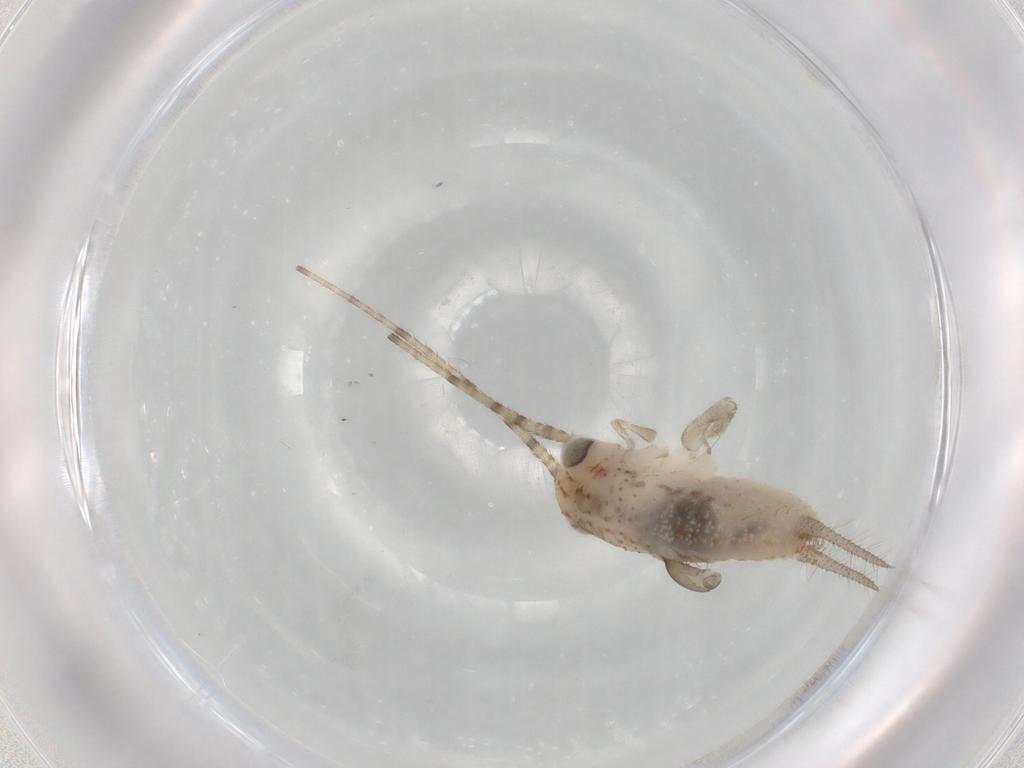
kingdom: Animalia
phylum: Arthropoda
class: Insecta
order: Orthoptera
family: Trigonidiidae
